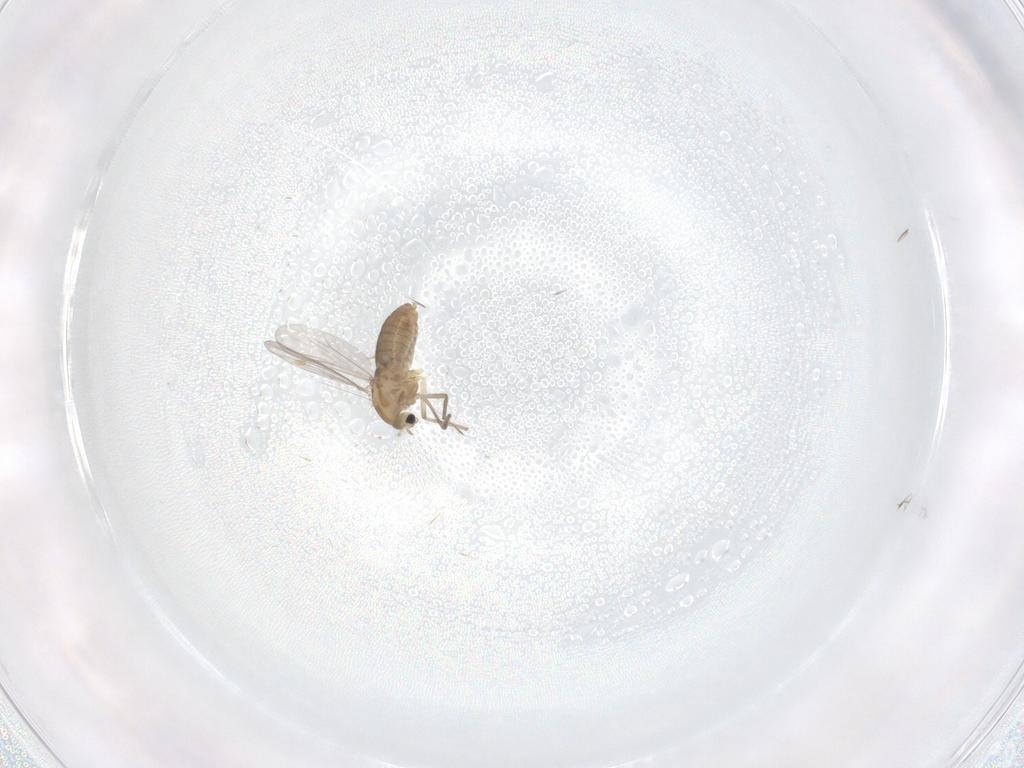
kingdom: Animalia
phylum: Arthropoda
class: Insecta
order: Diptera
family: Chironomidae
